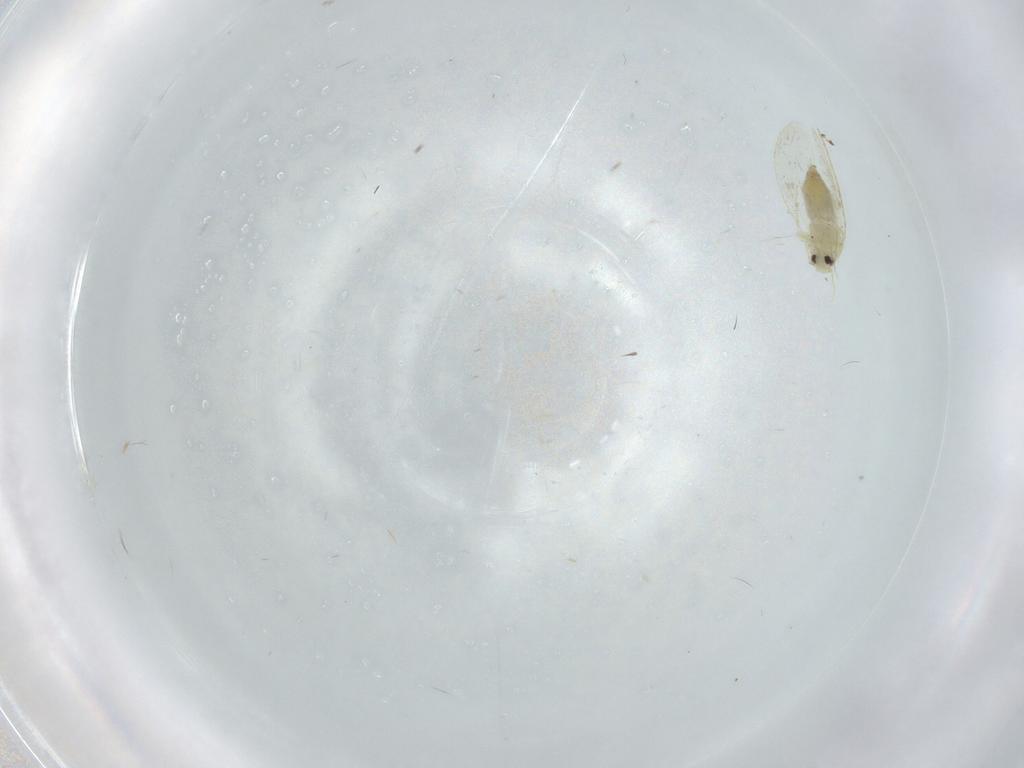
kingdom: Animalia
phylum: Arthropoda
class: Insecta
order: Hemiptera
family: Aleyrodidae
